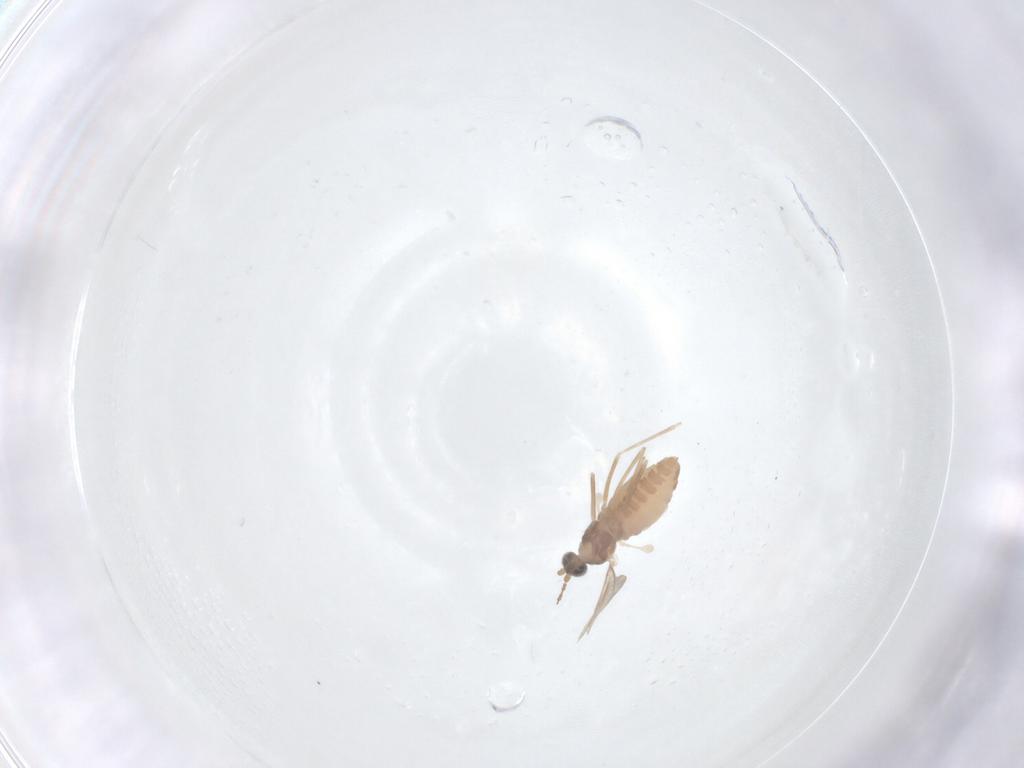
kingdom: Animalia
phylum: Arthropoda
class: Insecta
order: Diptera
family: Cecidomyiidae
